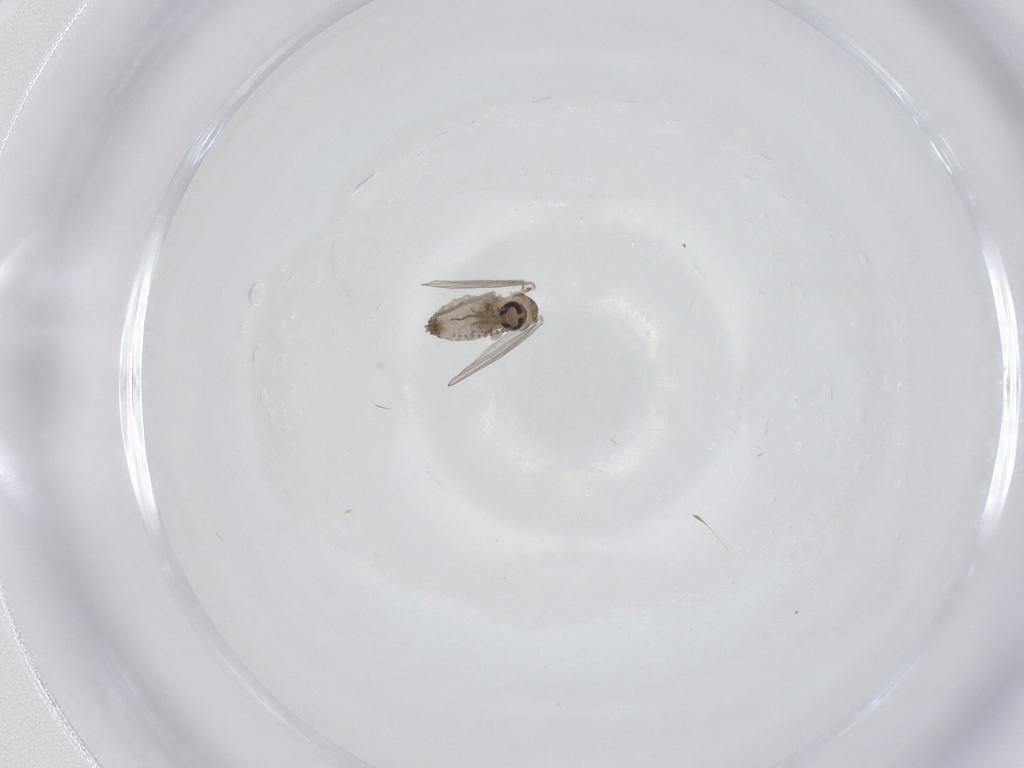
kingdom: Animalia
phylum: Arthropoda
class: Insecta
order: Diptera
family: Psychodidae
